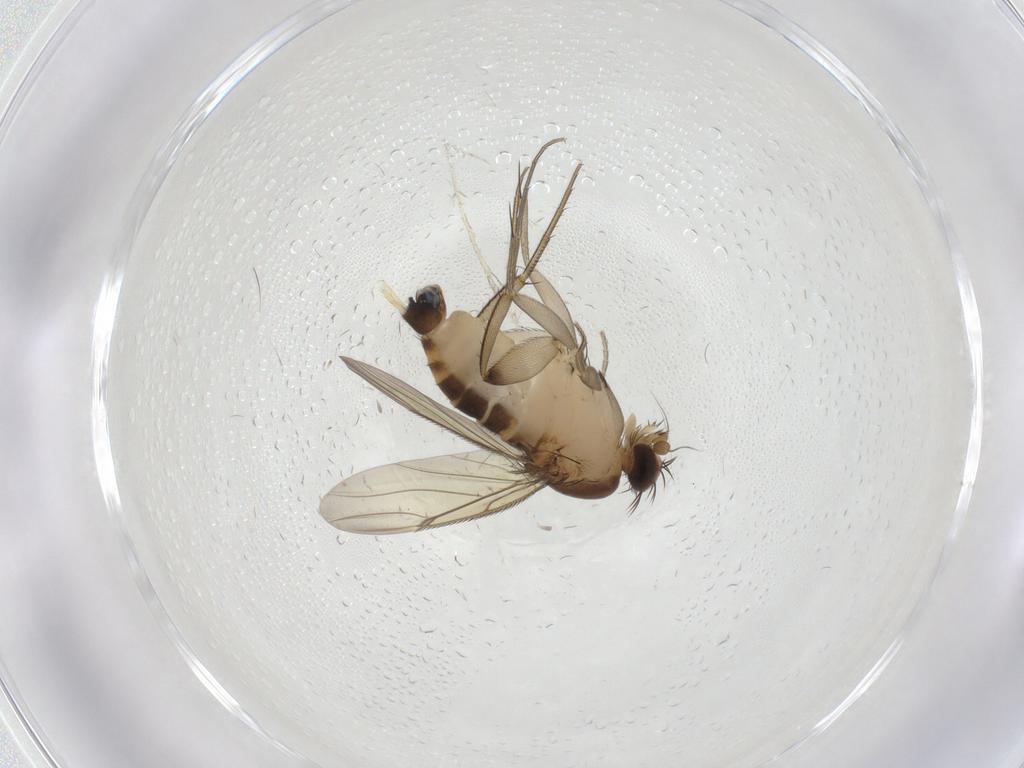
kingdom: Animalia
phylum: Arthropoda
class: Insecta
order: Diptera
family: Phoridae
